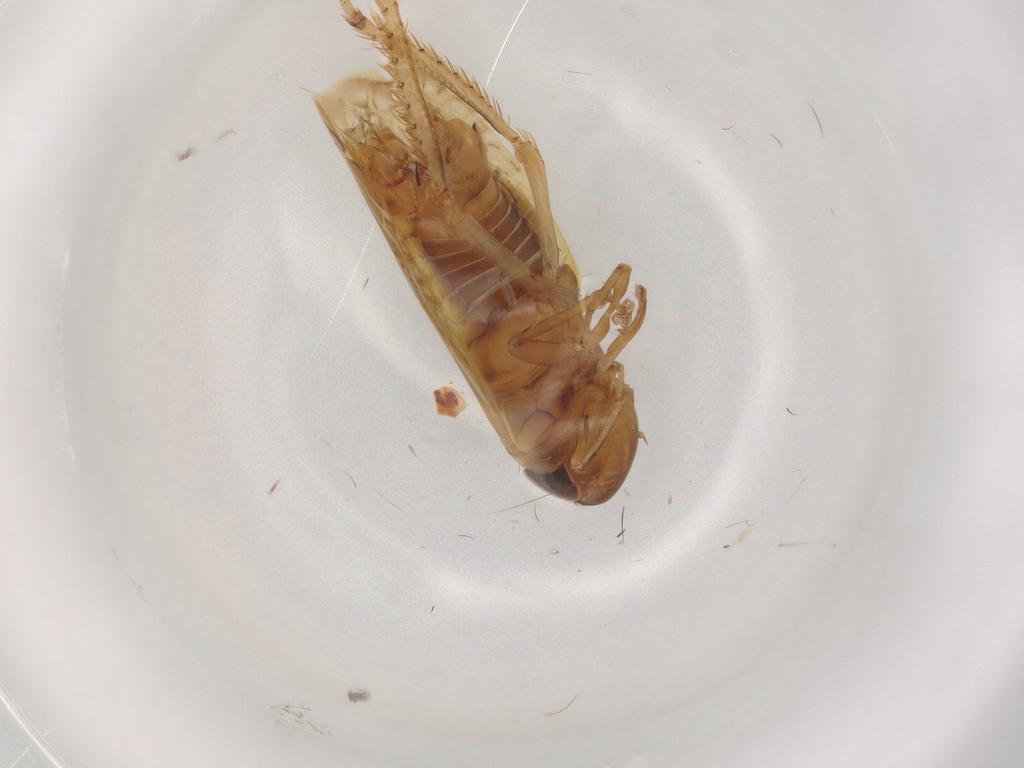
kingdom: Animalia
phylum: Arthropoda
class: Insecta
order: Hemiptera
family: Cicadellidae
